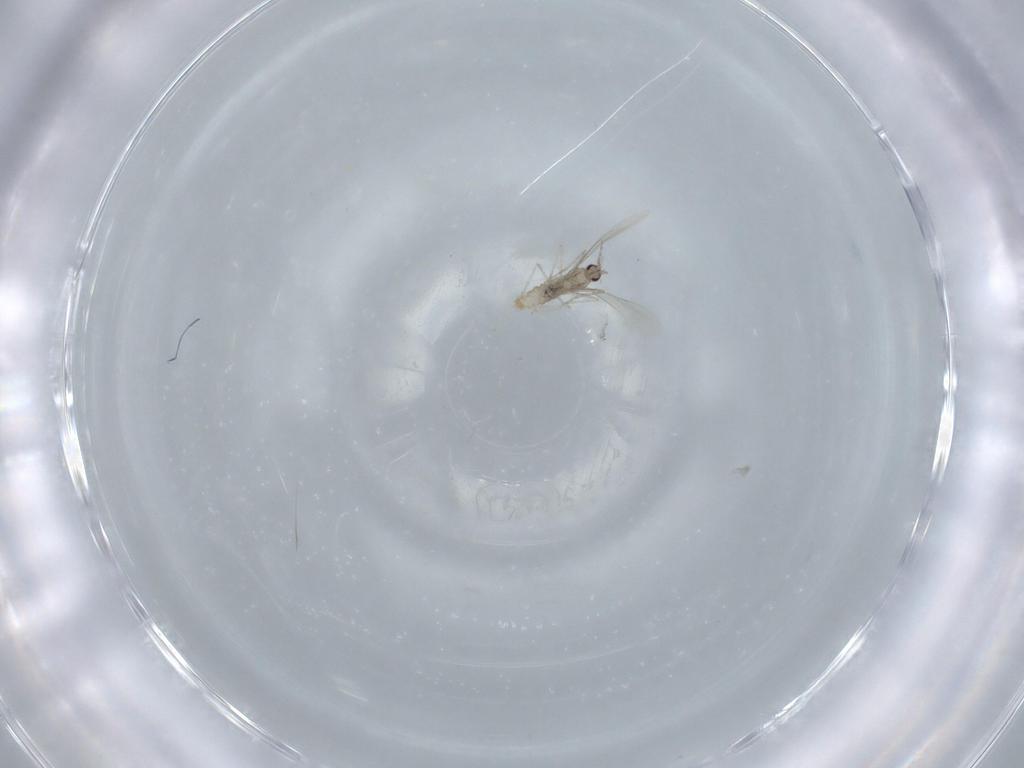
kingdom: Animalia
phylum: Arthropoda
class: Insecta
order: Diptera
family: Cecidomyiidae
